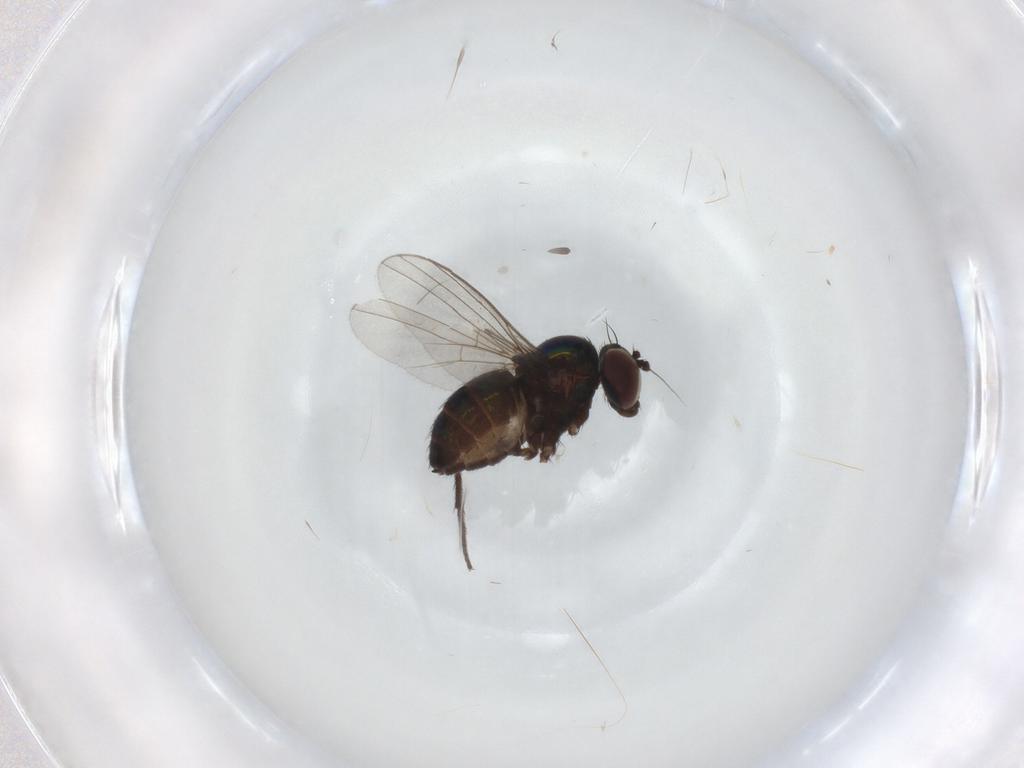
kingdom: Animalia
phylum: Arthropoda
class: Insecta
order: Diptera
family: Dolichopodidae
